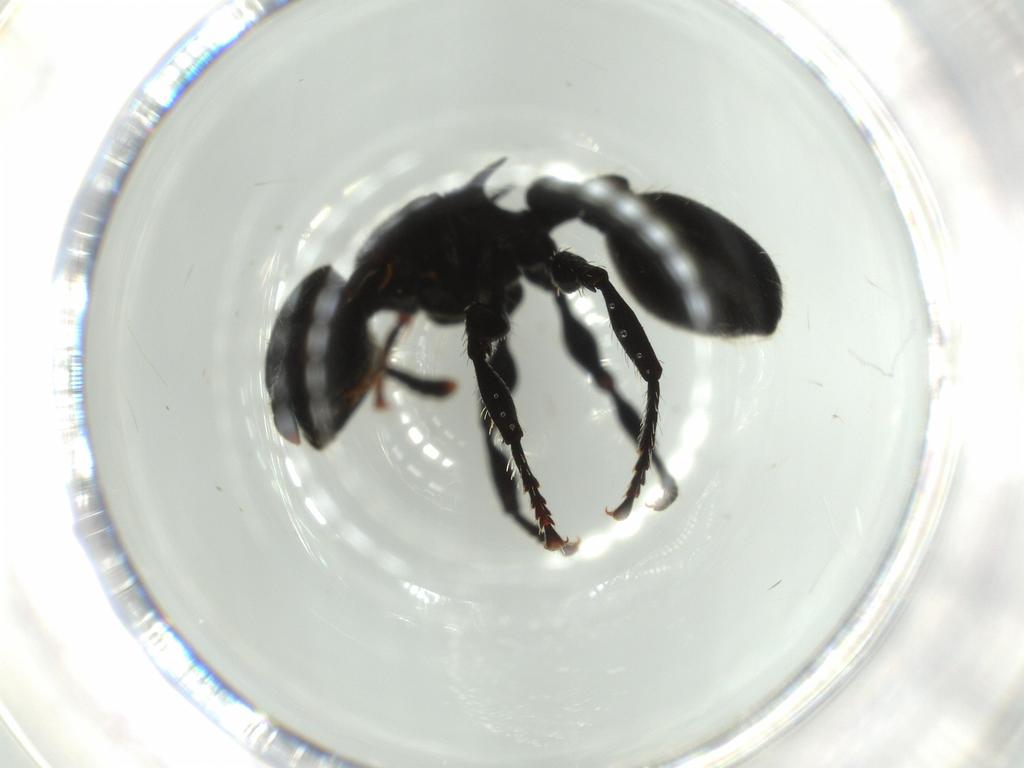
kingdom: Animalia
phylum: Arthropoda
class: Insecta
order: Hymenoptera
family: Formicidae
